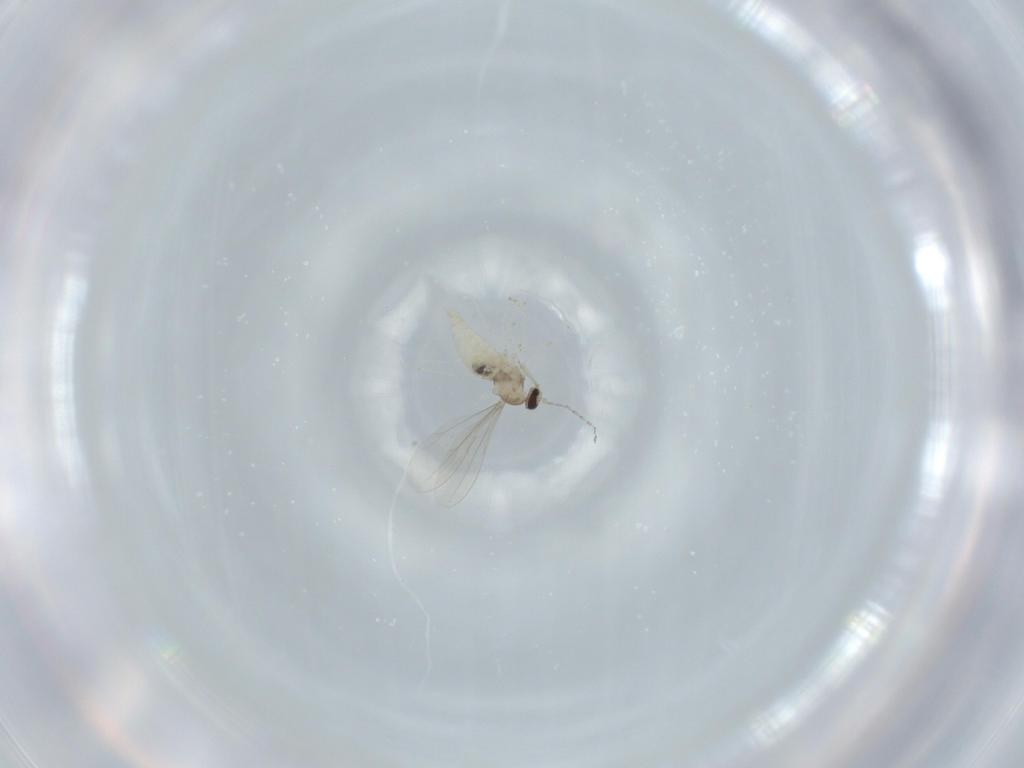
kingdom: Animalia
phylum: Arthropoda
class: Insecta
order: Diptera
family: Cecidomyiidae
